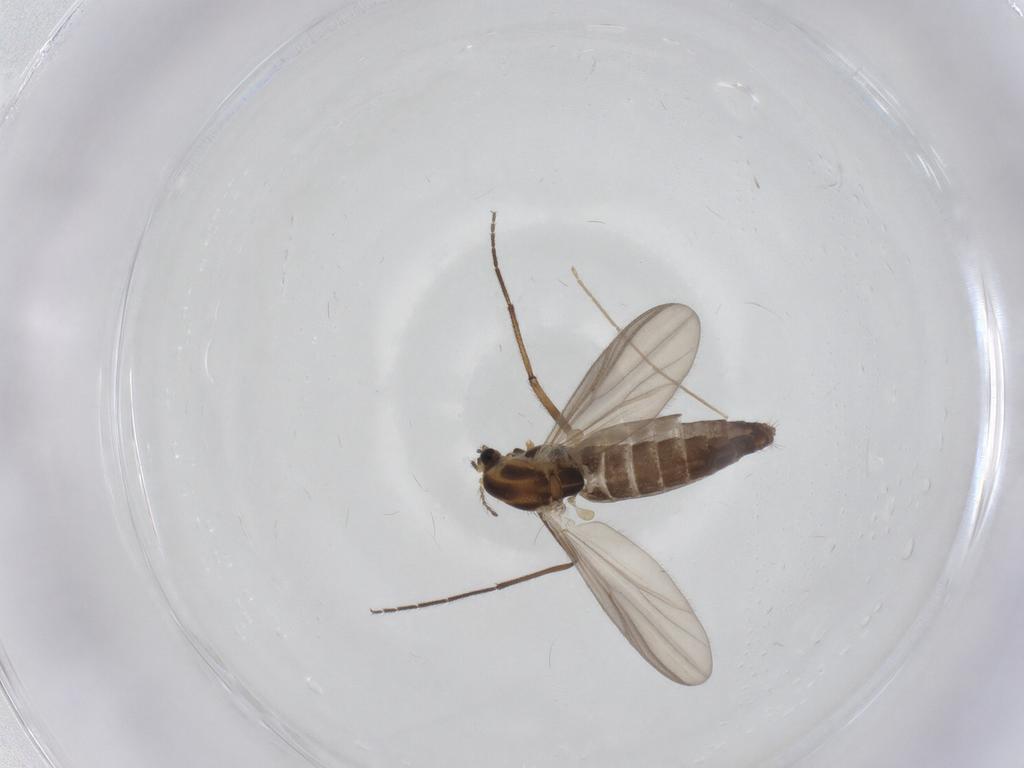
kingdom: Animalia
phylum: Arthropoda
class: Insecta
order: Diptera
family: Chironomidae
